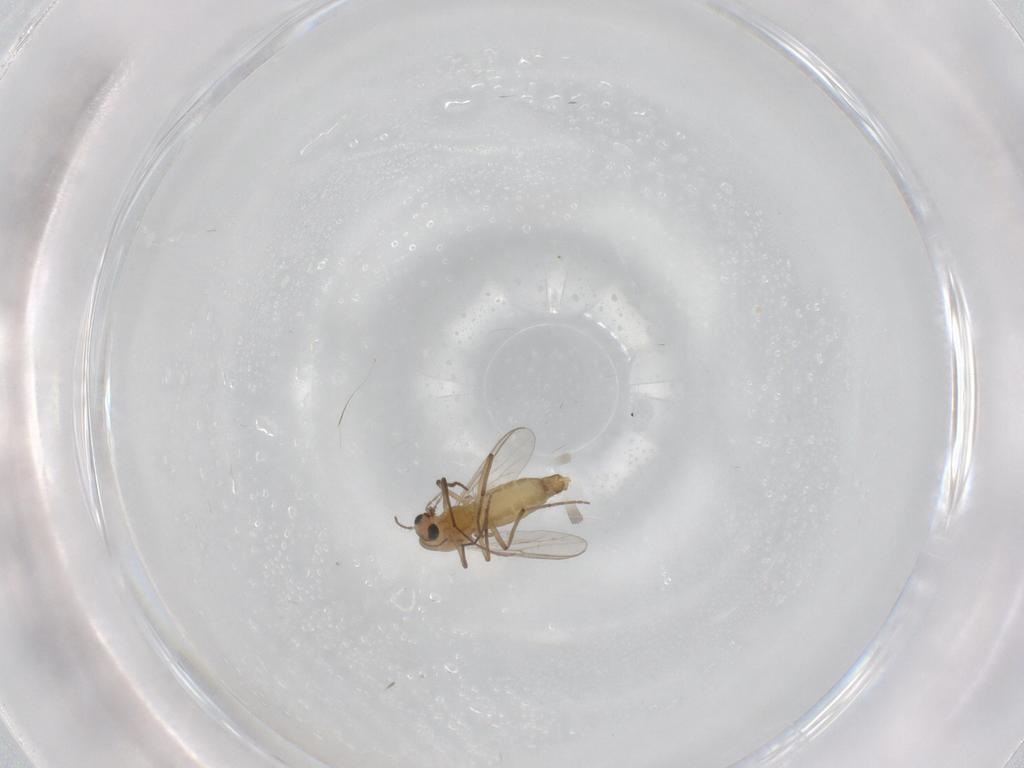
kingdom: Animalia
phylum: Arthropoda
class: Insecta
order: Diptera
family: Chironomidae
